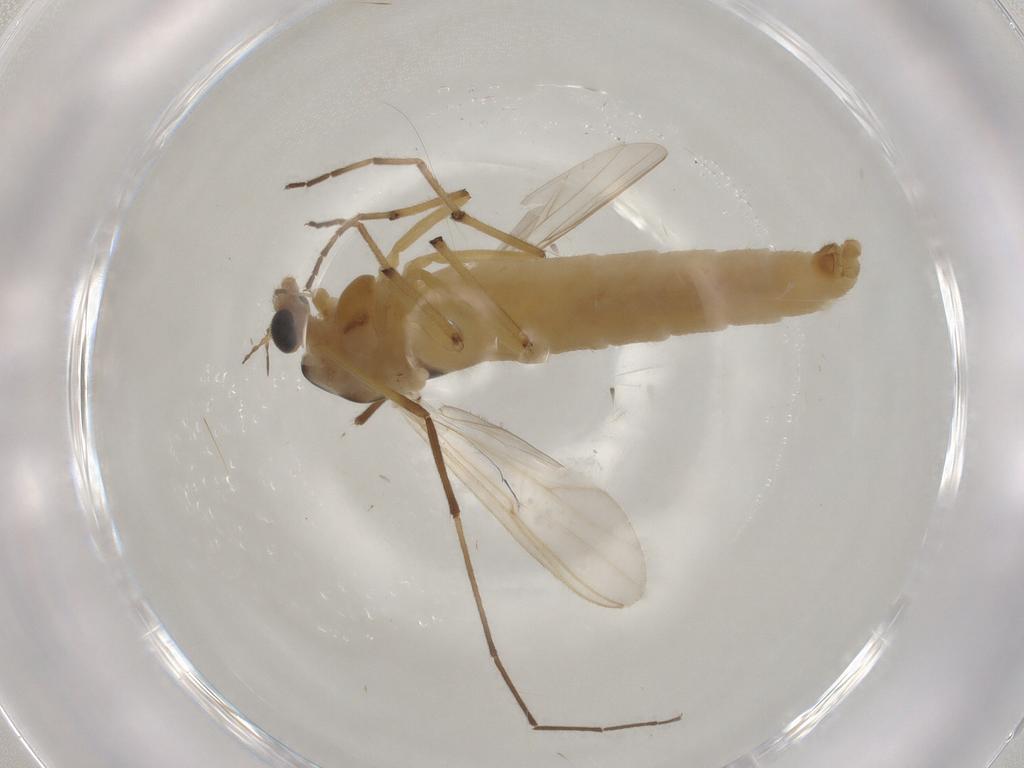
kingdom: Animalia
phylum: Arthropoda
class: Insecta
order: Diptera
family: Chironomidae
